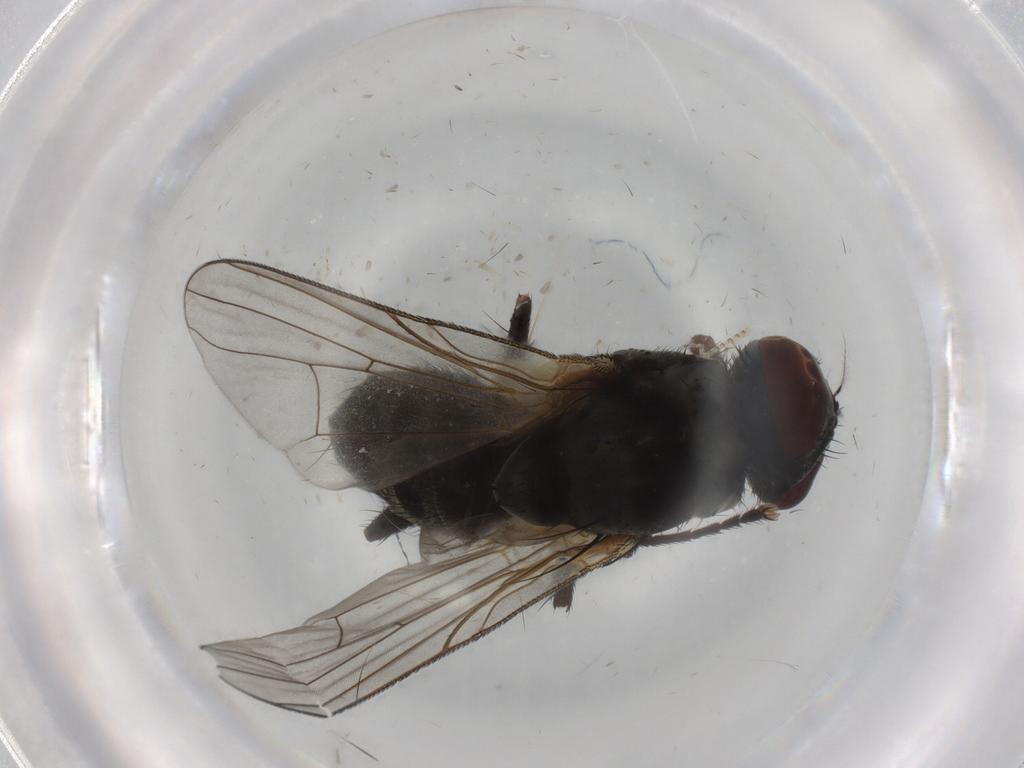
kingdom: Animalia
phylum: Arthropoda
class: Insecta
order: Diptera
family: Muscidae
